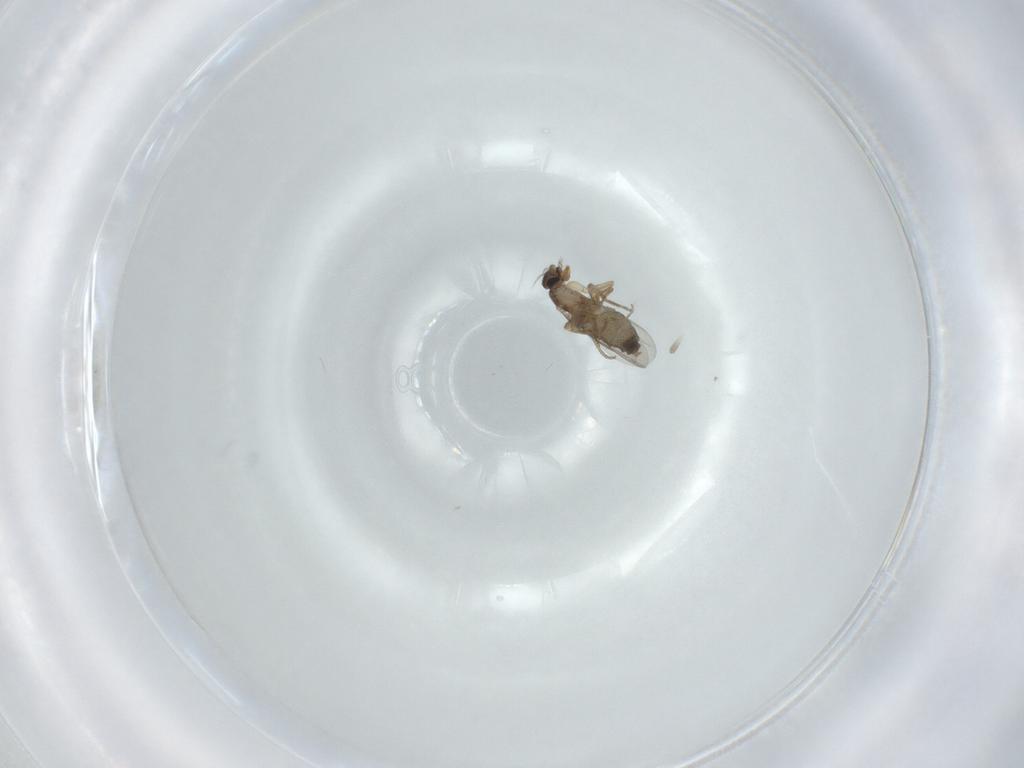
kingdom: Animalia
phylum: Arthropoda
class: Insecta
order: Diptera
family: Phoridae
